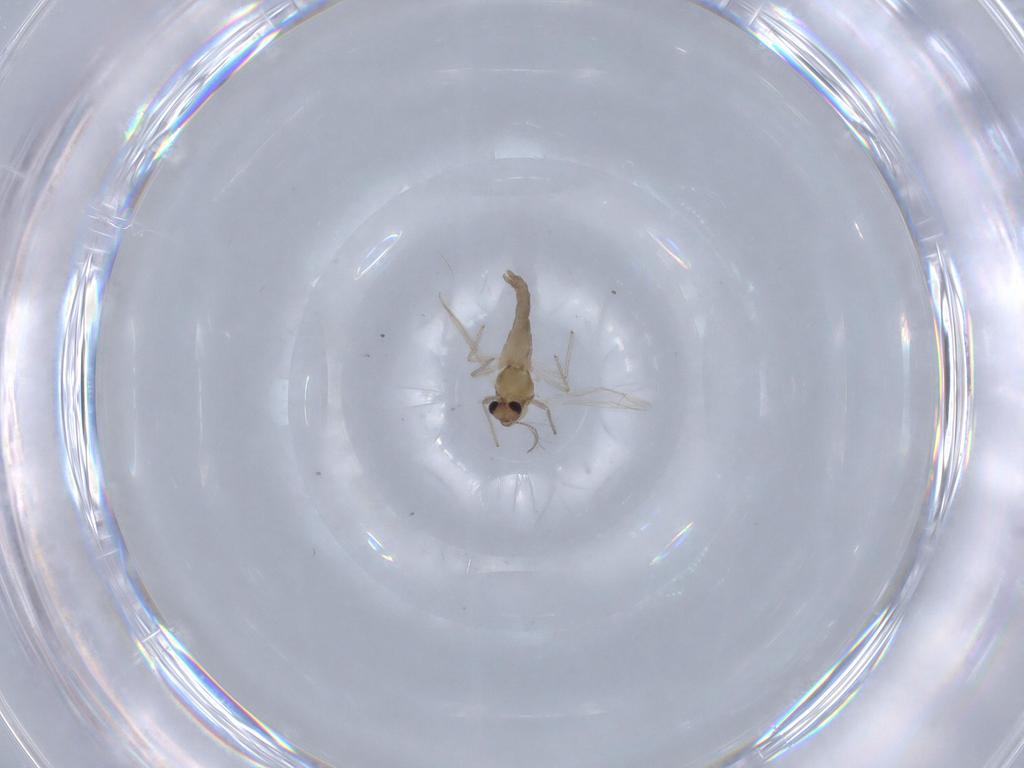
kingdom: Animalia
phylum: Arthropoda
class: Insecta
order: Diptera
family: Chironomidae
